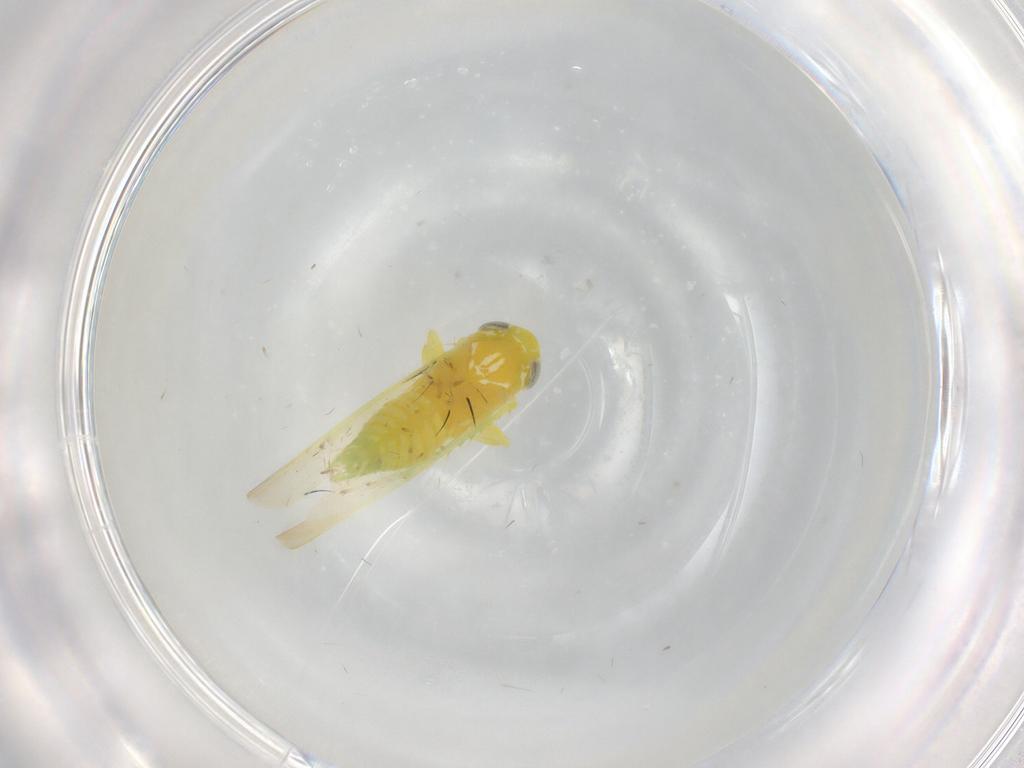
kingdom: Animalia
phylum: Arthropoda
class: Insecta
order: Hemiptera
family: Cicadellidae
